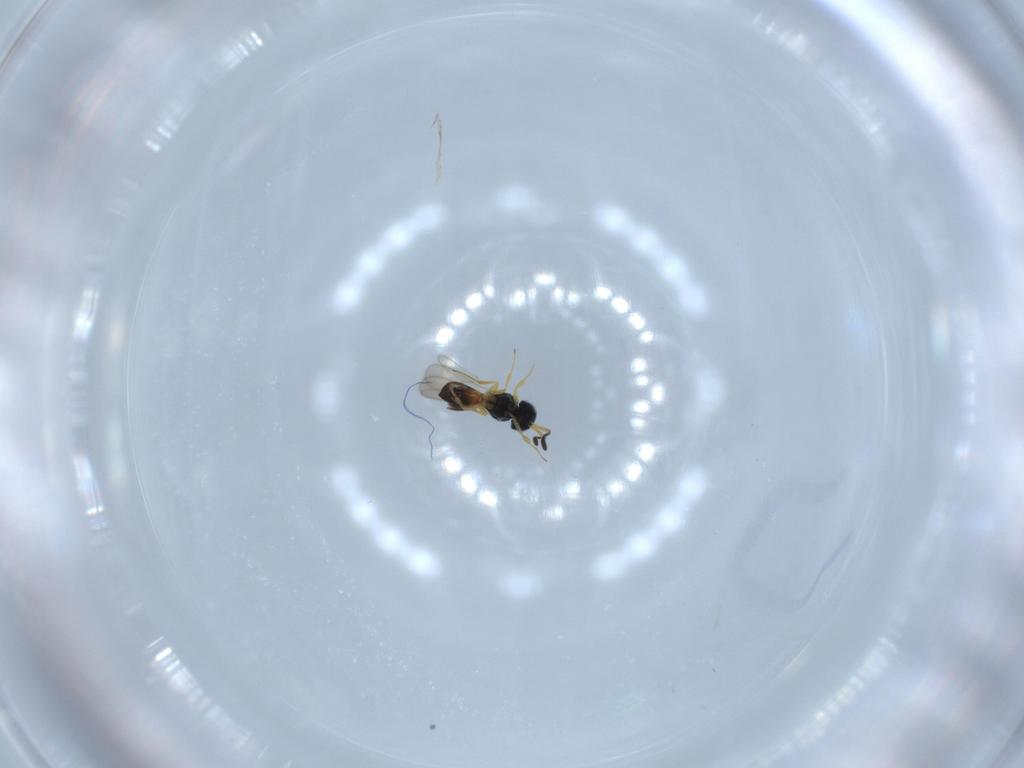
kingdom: Animalia
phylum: Arthropoda
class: Insecta
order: Hymenoptera
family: Scelionidae
